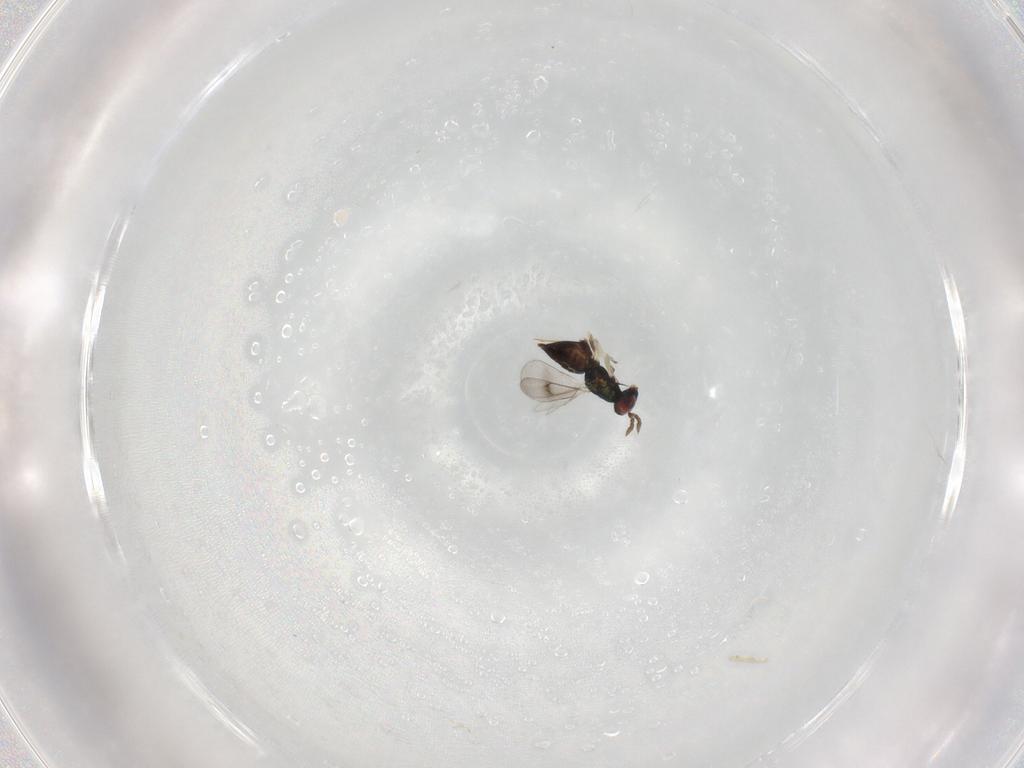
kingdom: Animalia
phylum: Arthropoda
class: Insecta
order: Hymenoptera
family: Eulophidae
